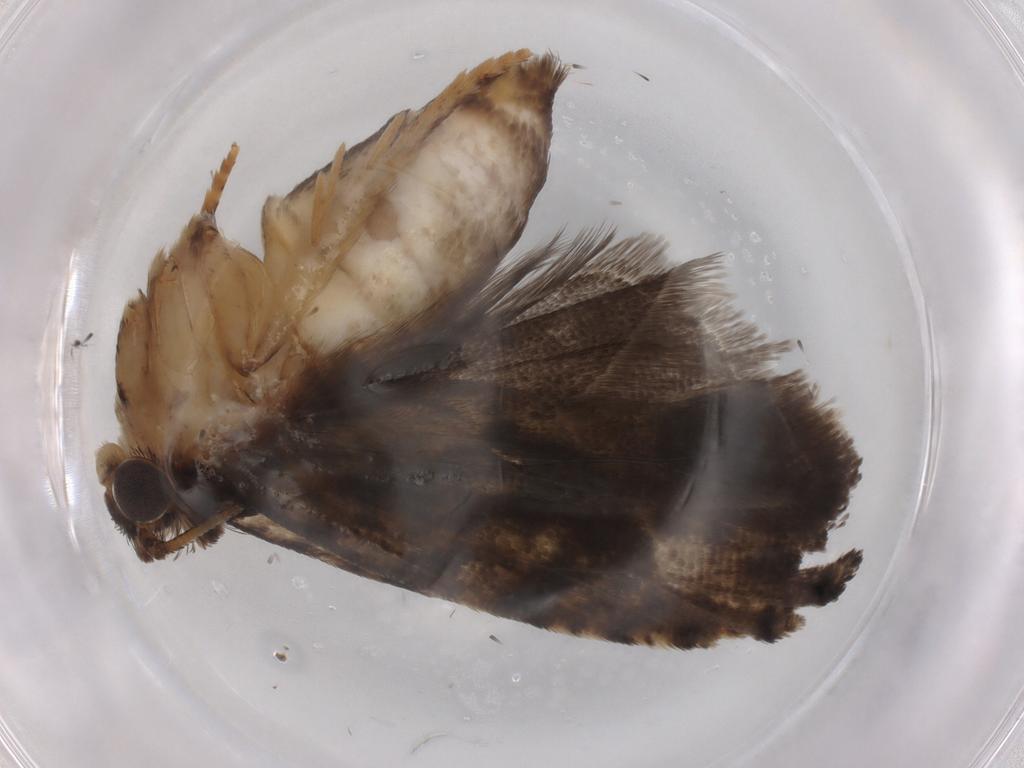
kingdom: Animalia
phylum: Arthropoda
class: Insecta
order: Lepidoptera
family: Tortricidae
